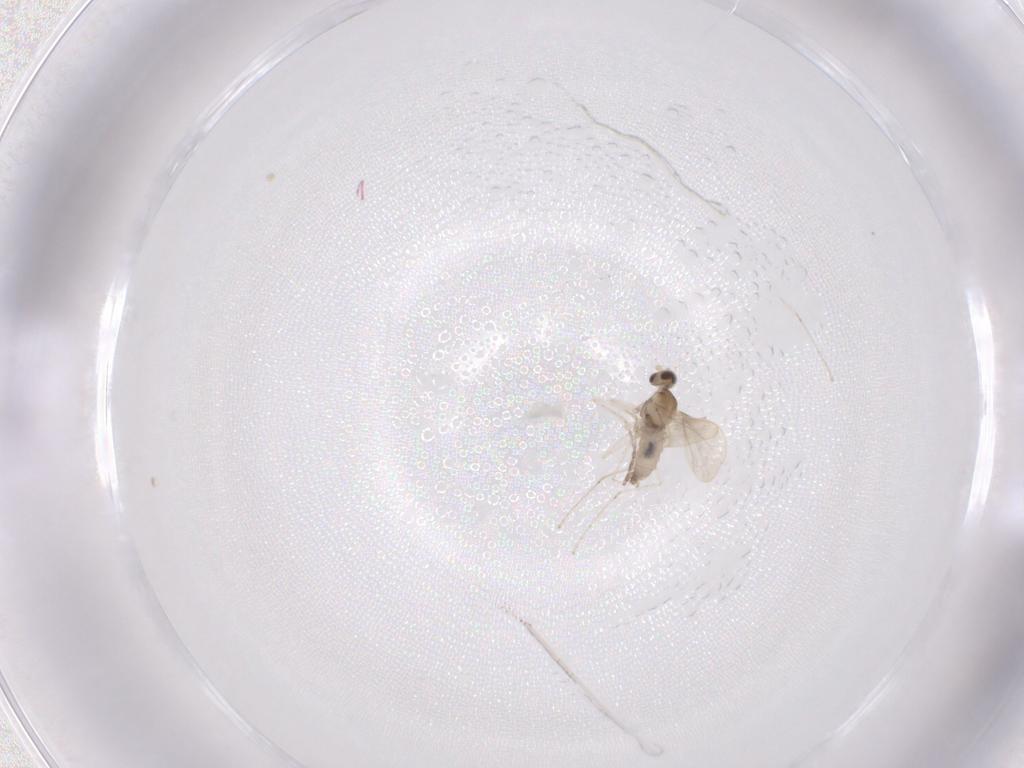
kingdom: Animalia
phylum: Arthropoda
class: Insecta
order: Diptera
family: Cecidomyiidae
